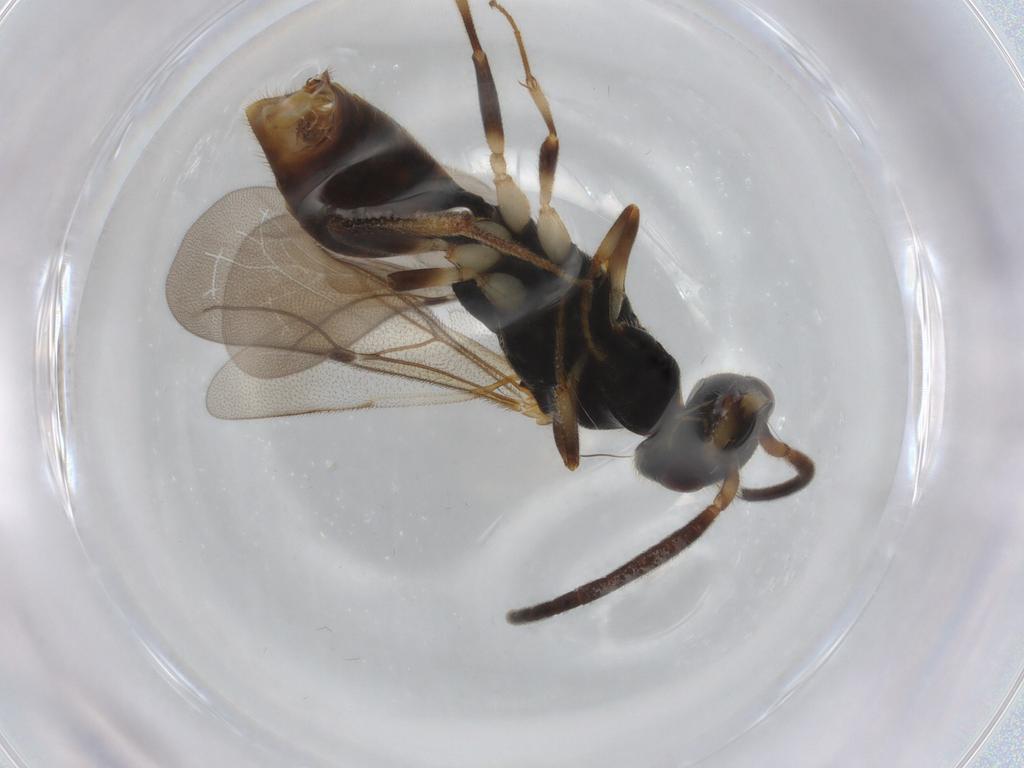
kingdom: Animalia
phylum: Arthropoda
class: Insecta
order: Hymenoptera
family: Bethylidae
